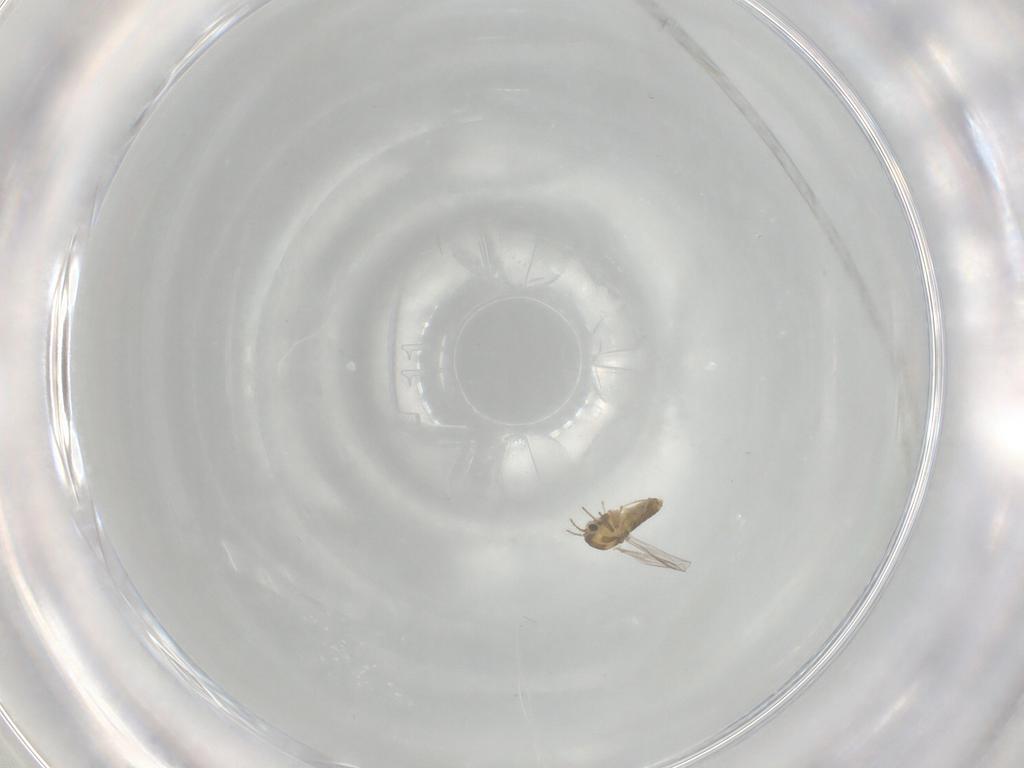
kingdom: Animalia
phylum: Arthropoda
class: Insecta
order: Diptera
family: Chironomidae
